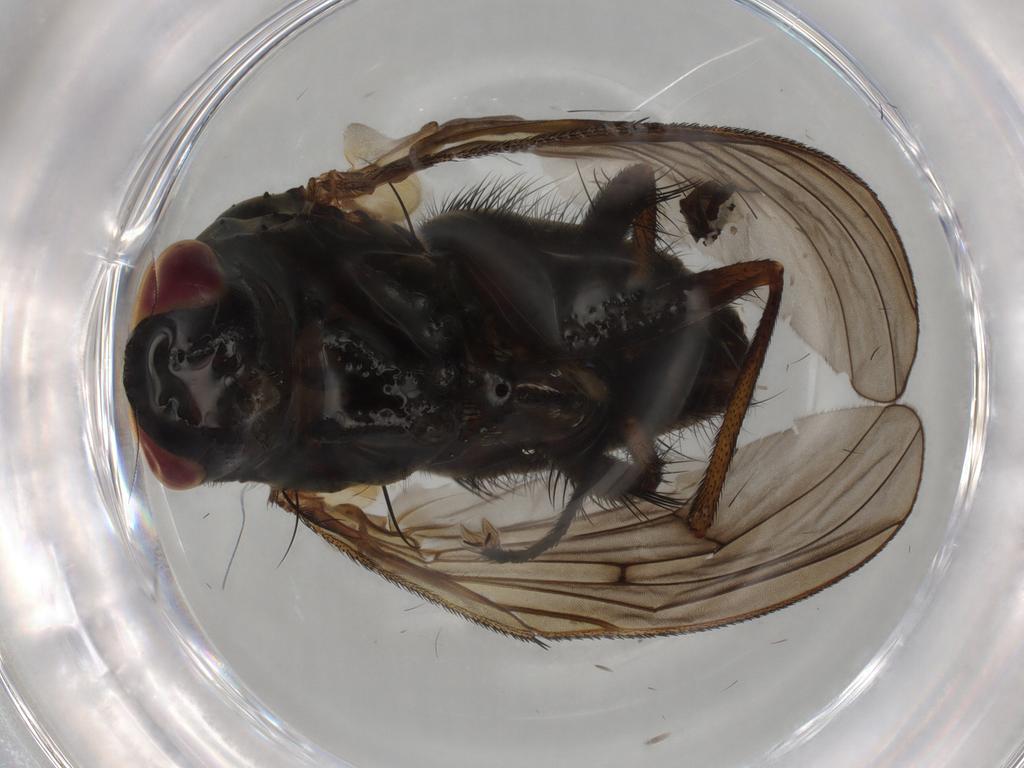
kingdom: Animalia
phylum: Arthropoda
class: Insecta
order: Diptera
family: Muscidae
